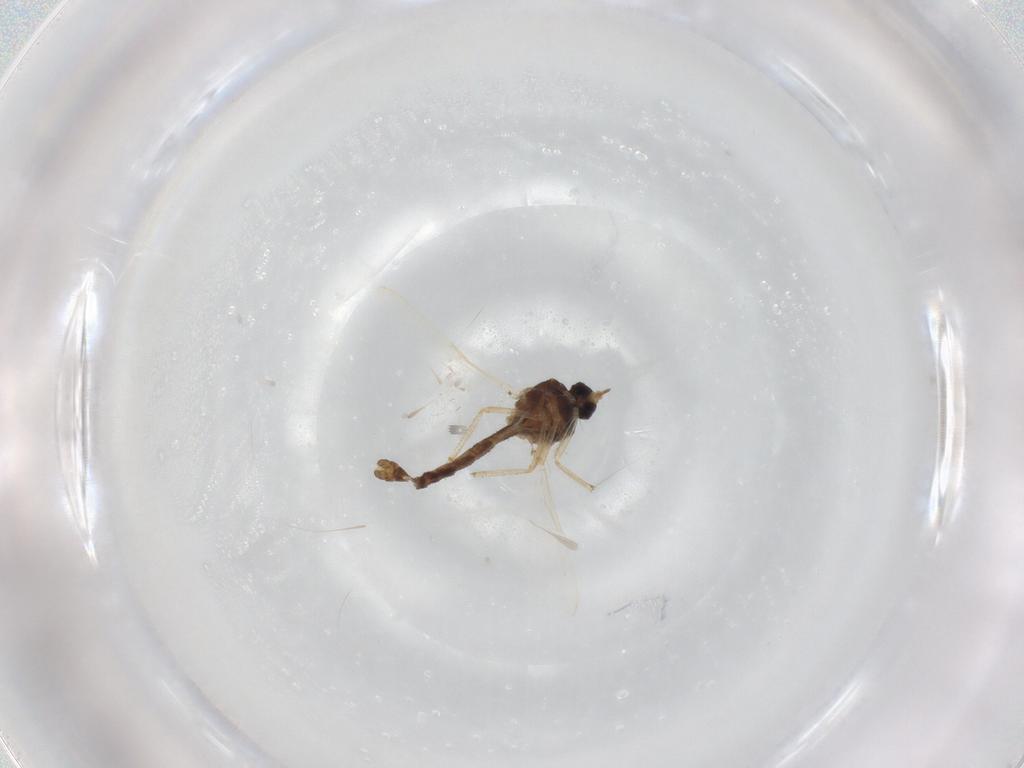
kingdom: Animalia
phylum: Arthropoda
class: Insecta
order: Diptera
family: Ceratopogonidae
